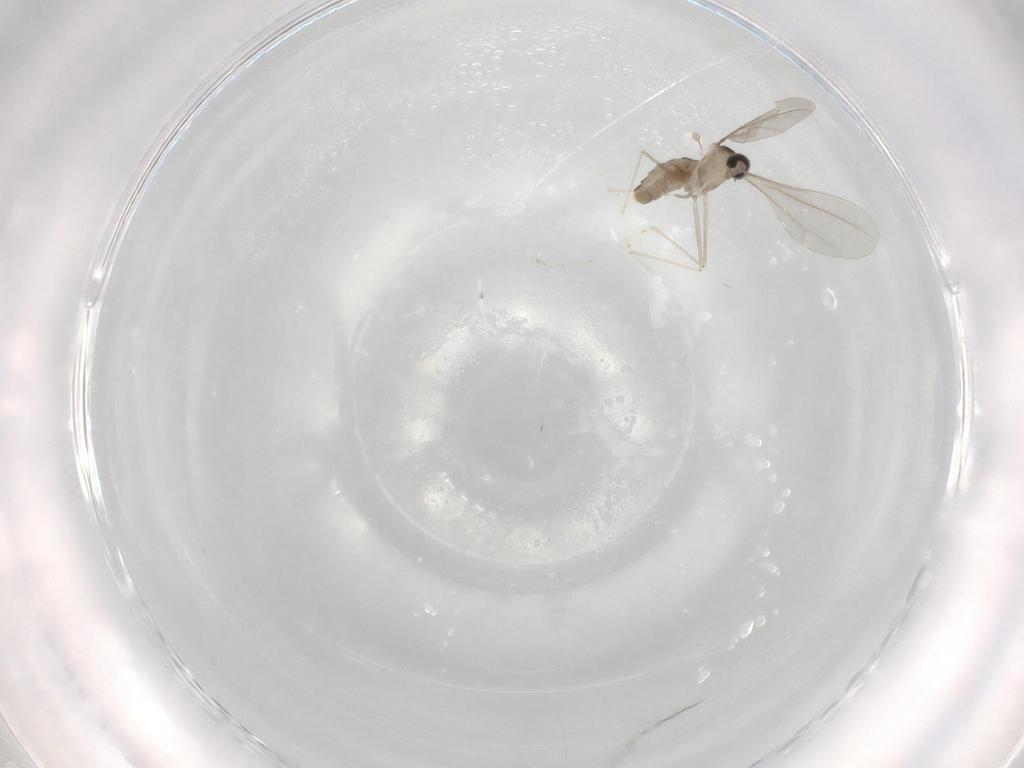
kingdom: Animalia
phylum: Arthropoda
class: Insecta
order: Diptera
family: Cecidomyiidae
